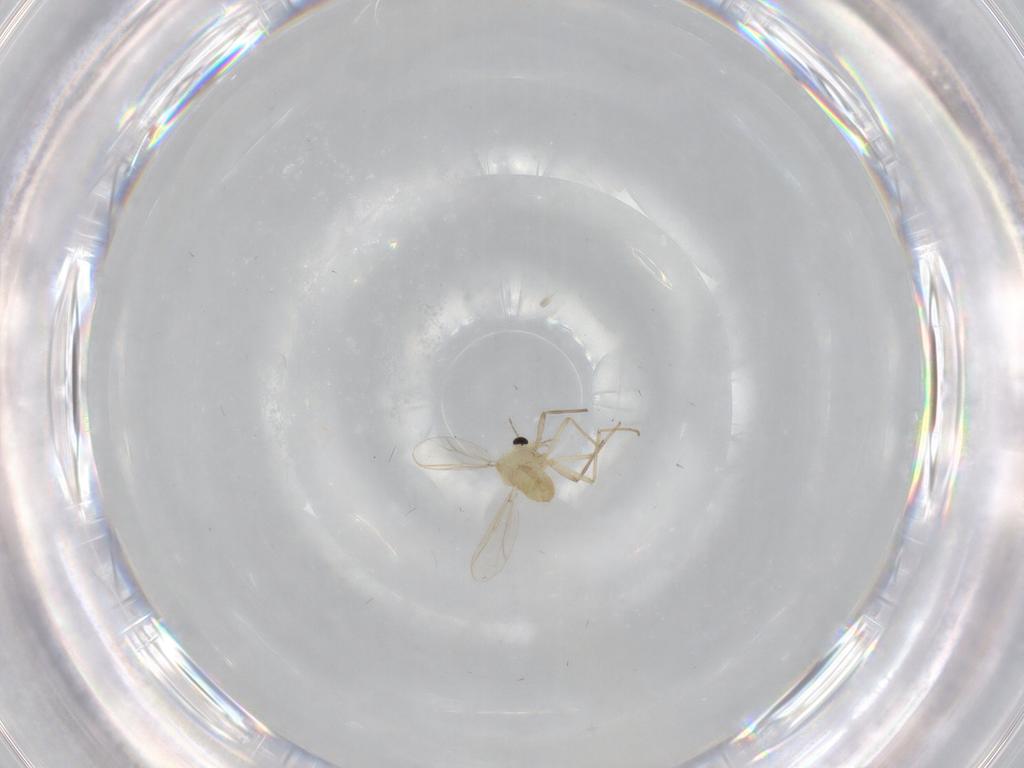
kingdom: Animalia
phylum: Arthropoda
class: Insecta
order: Diptera
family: Chironomidae
